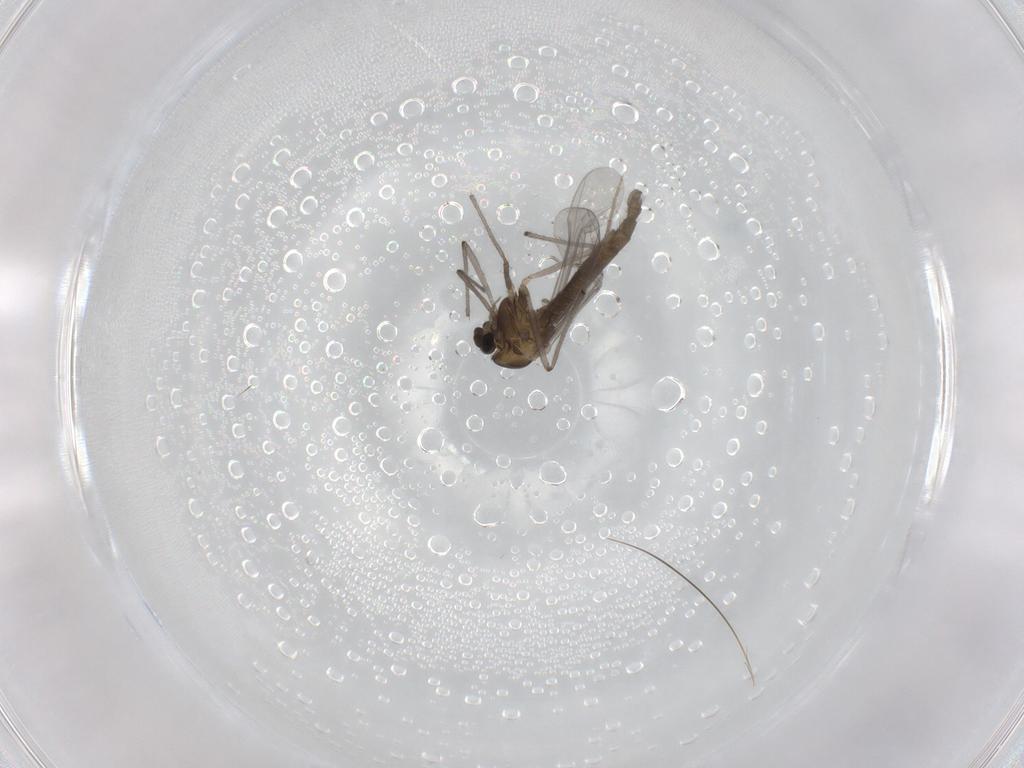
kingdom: Animalia
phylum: Arthropoda
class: Insecta
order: Diptera
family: Chironomidae
